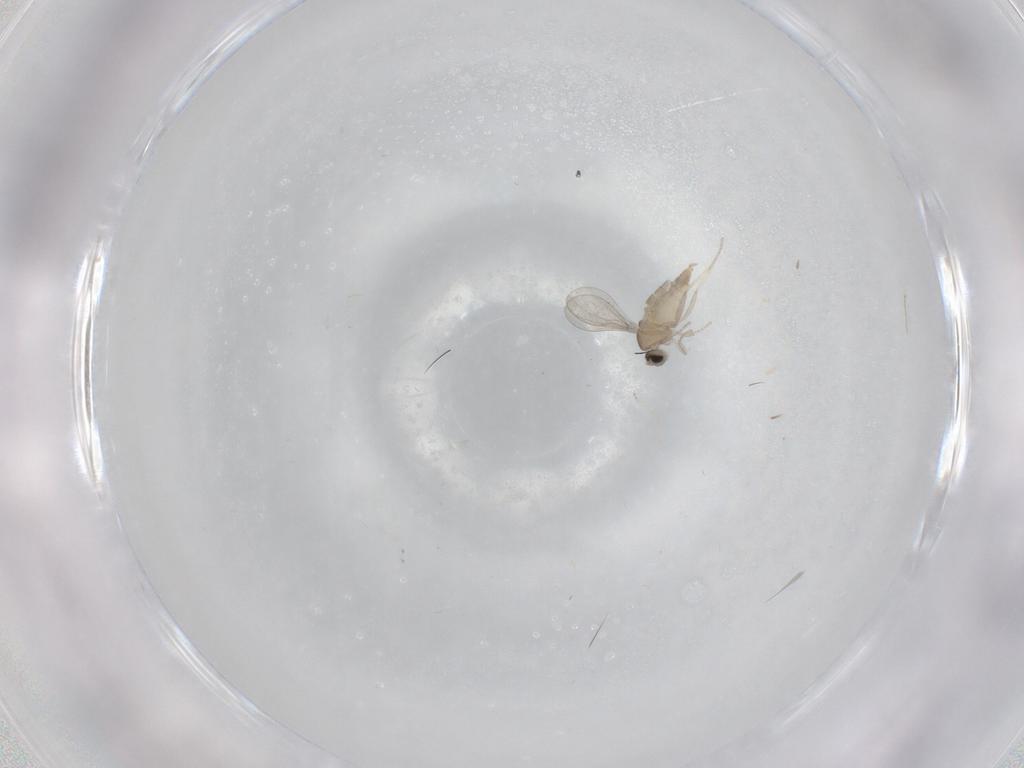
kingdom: Animalia
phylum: Arthropoda
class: Insecta
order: Diptera
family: Cecidomyiidae
